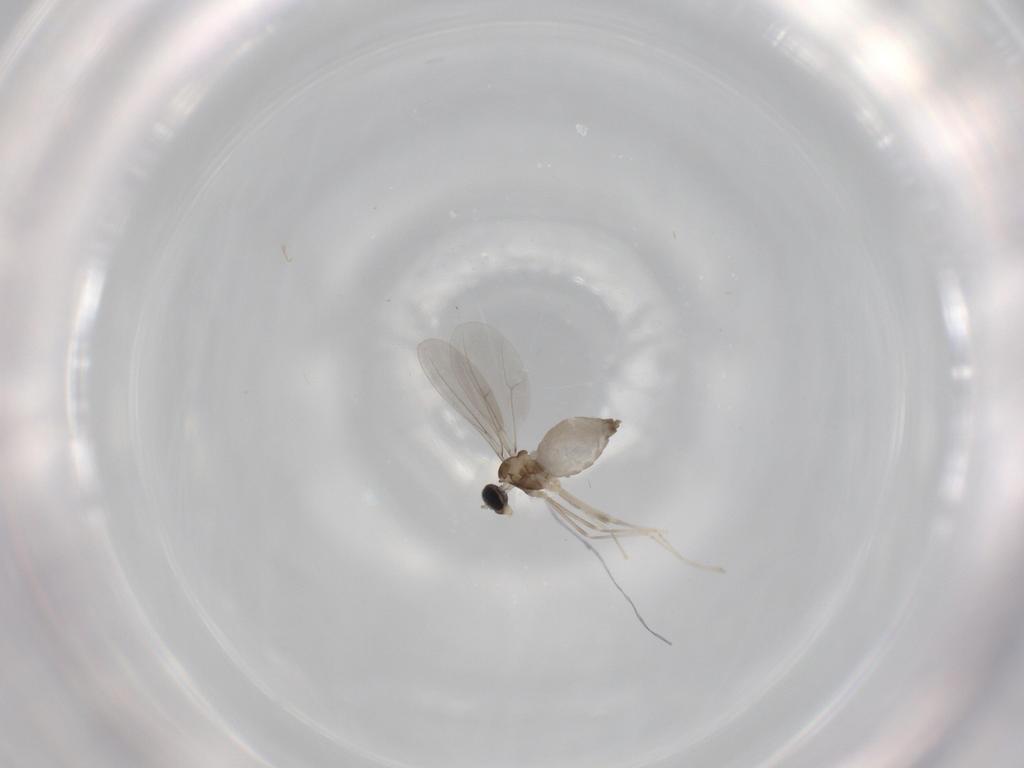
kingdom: Animalia
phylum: Arthropoda
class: Insecta
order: Diptera
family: Cecidomyiidae
